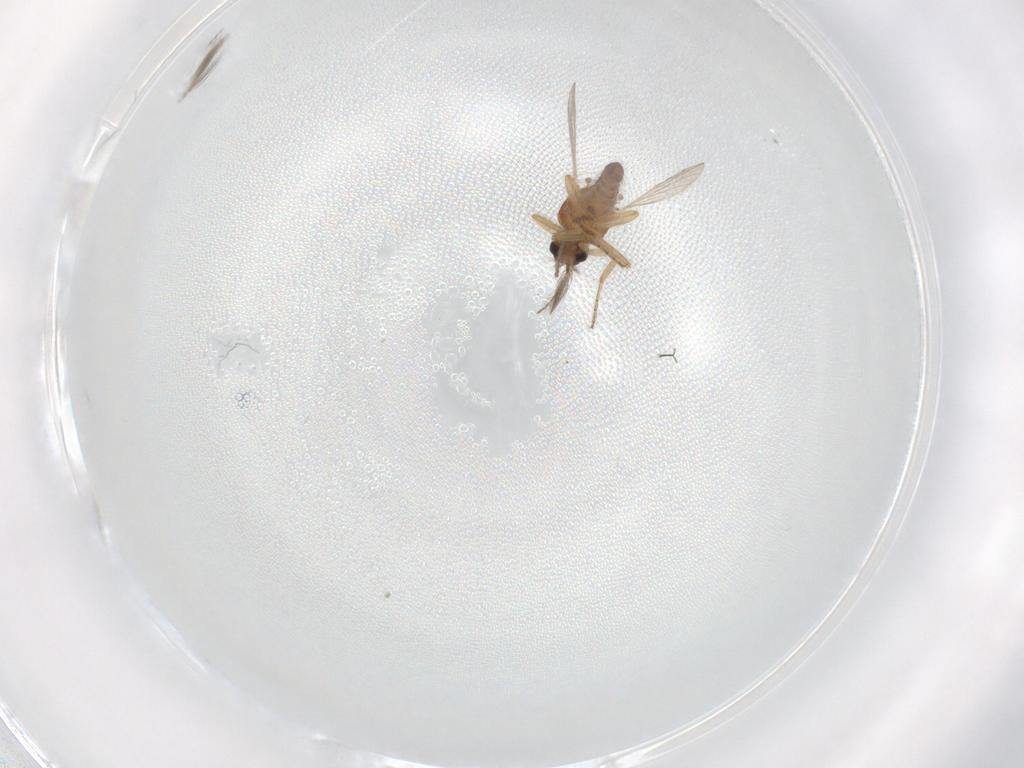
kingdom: Animalia
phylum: Arthropoda
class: Insecta
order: Diptera
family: Ceratopogonidae
